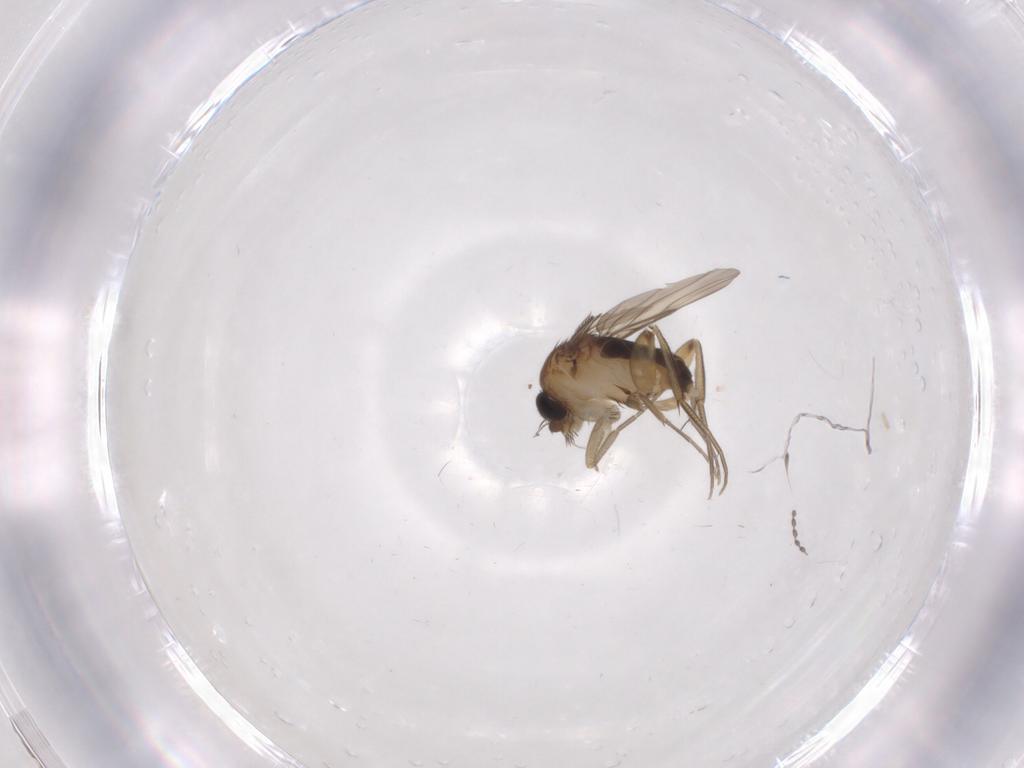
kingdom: Animalia
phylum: Arthropoda
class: Insecta
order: Diptera
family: Phoridae
